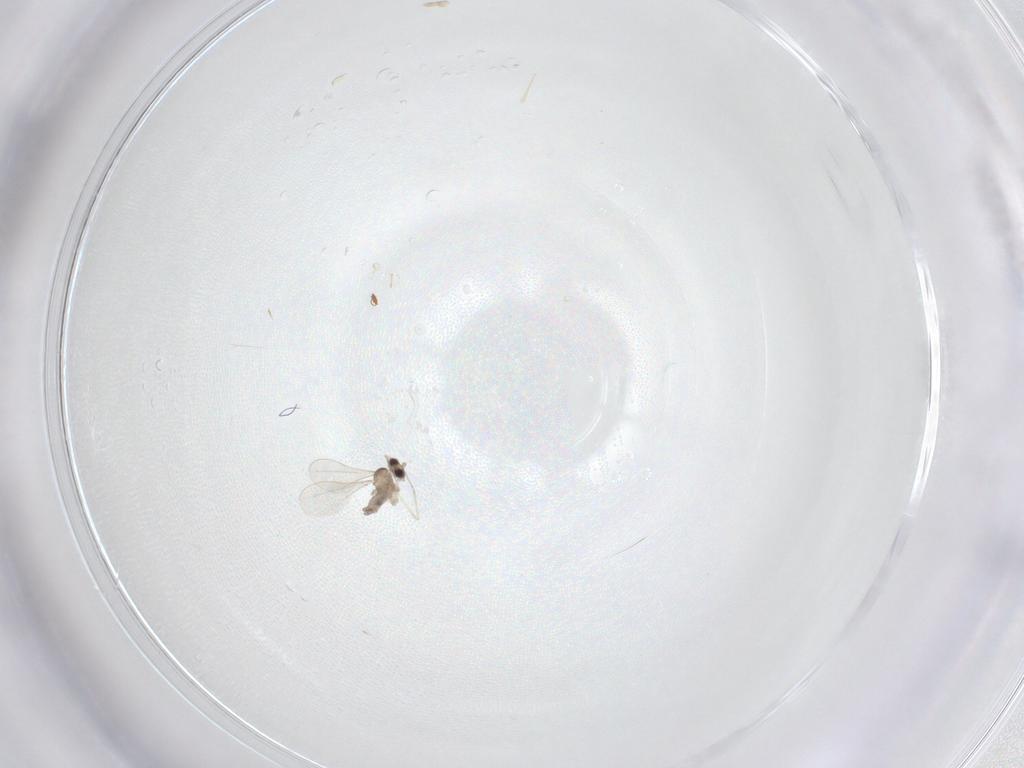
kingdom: Animalia
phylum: Arthropoda
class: Insecta
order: Diptera
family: Cecidomyiidae
